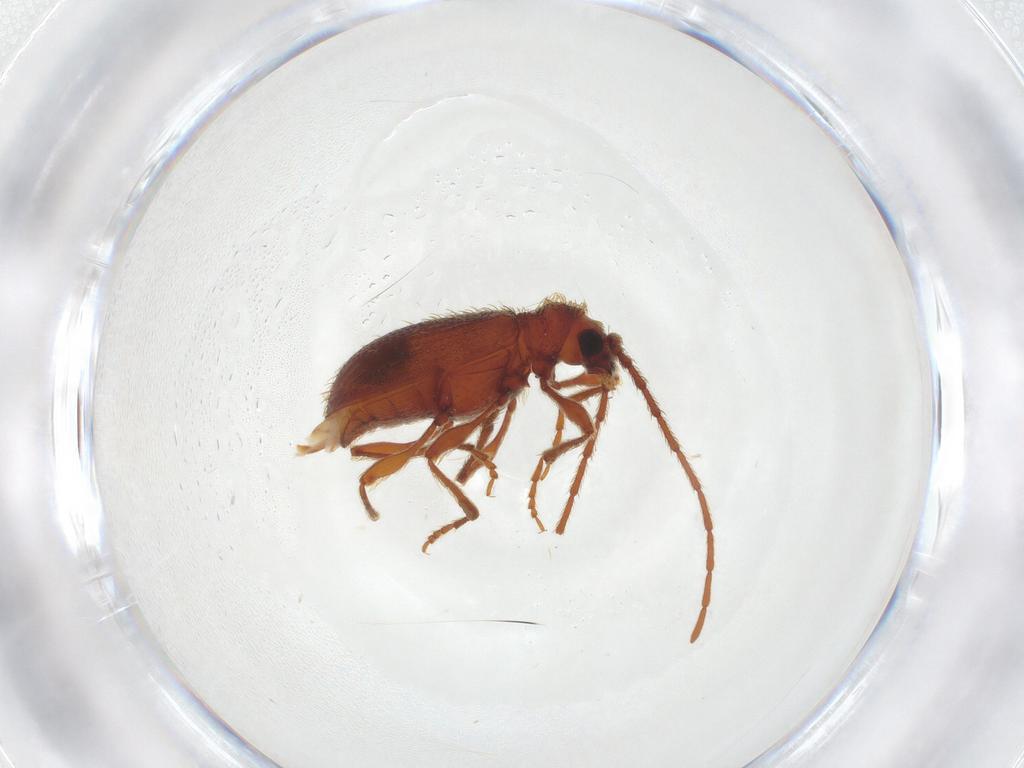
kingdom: Animalia
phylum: Arthropoda
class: Insecta
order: Coleoptera
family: Ptinidae
